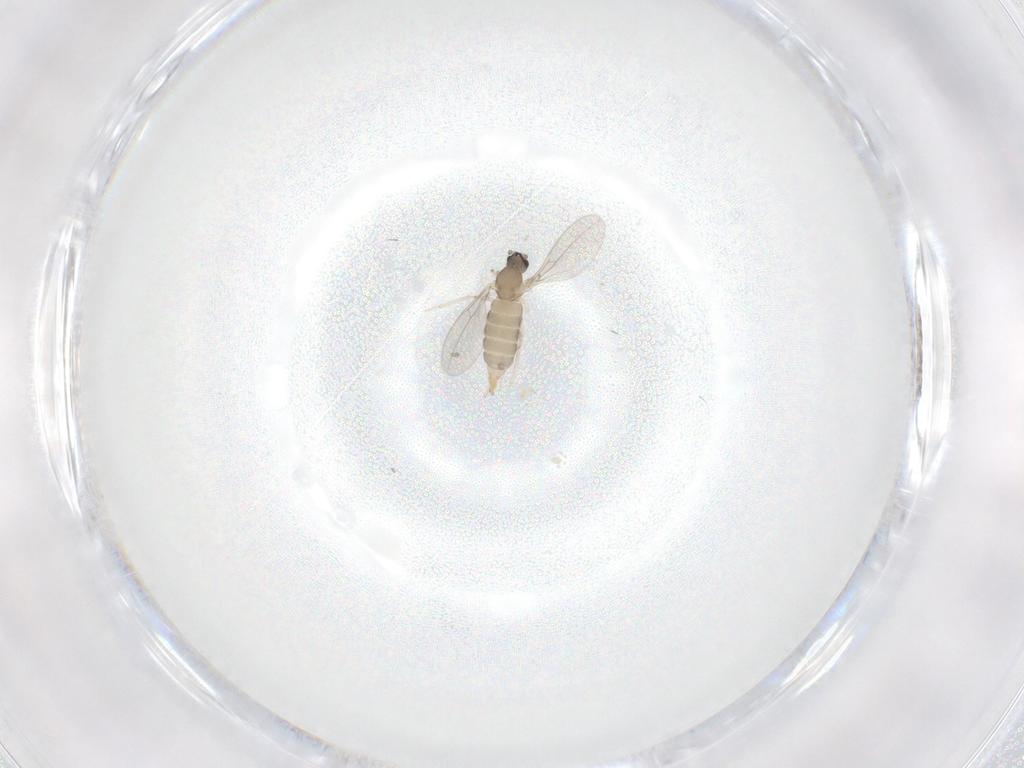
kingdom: Animalia
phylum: Arthropoda
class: Insecta
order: Diptera
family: Cecidomyiidae
